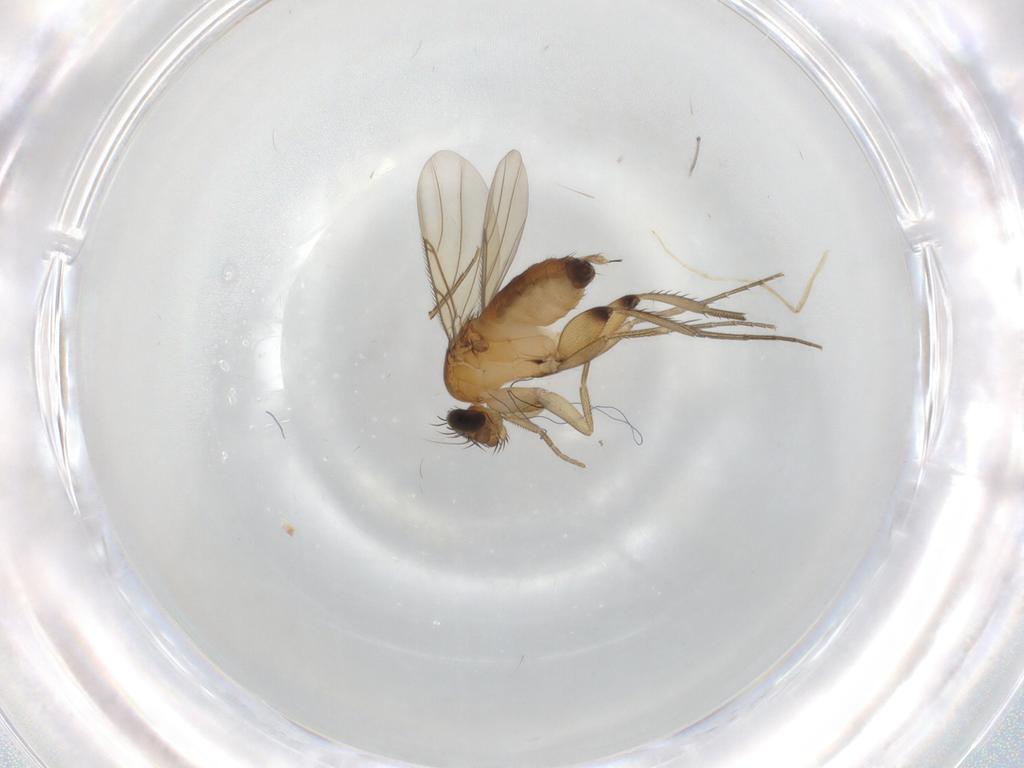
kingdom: Animalia
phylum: Arthropoda
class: Insecta
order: Diptera
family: Phoridae
